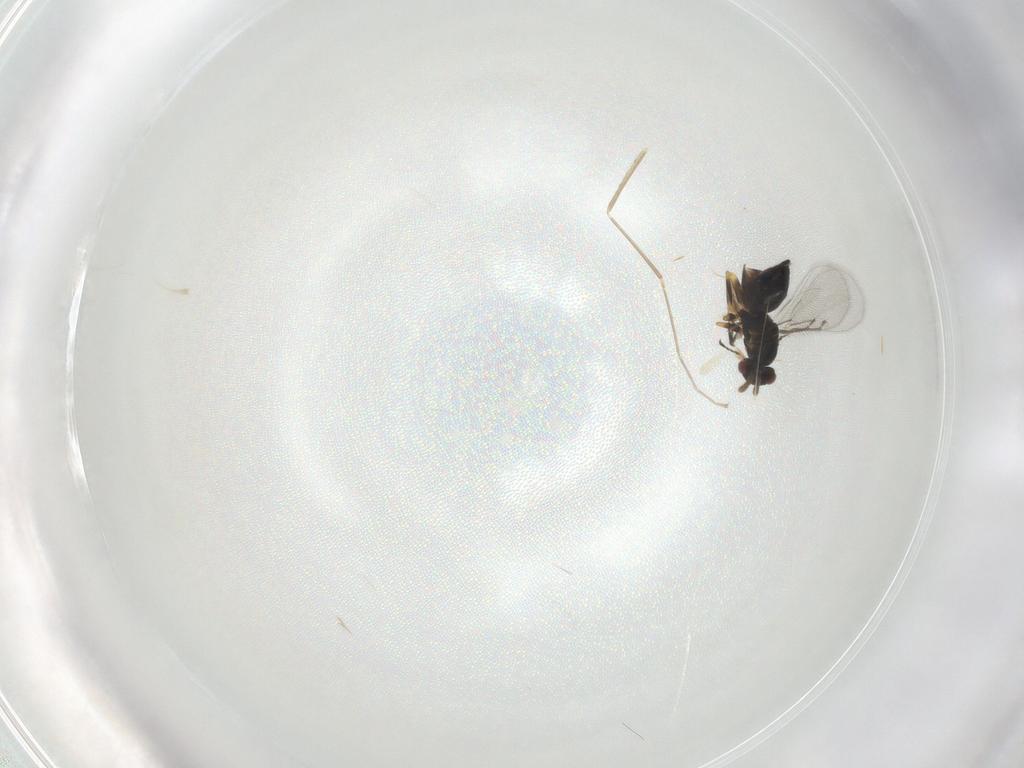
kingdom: Animalia
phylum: Arthropoda
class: Insecta
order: Hymenoptera
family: Eulophidae
